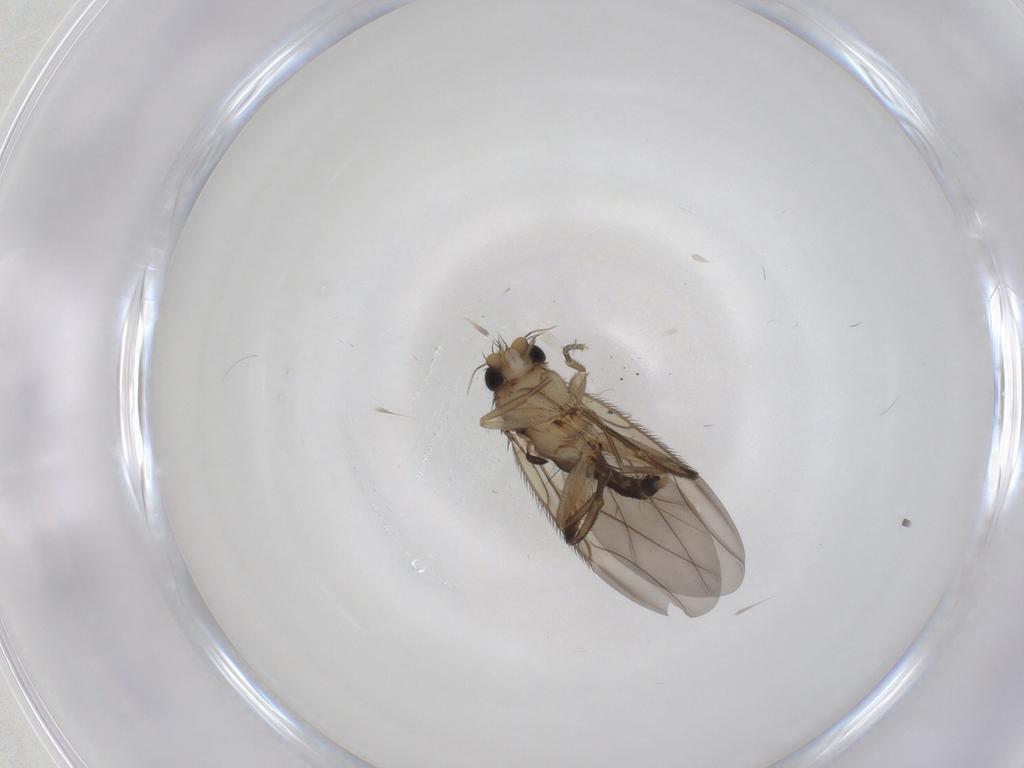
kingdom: Animalia
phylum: Arthropoda
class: Insecta
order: Diptera
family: Phoridae
